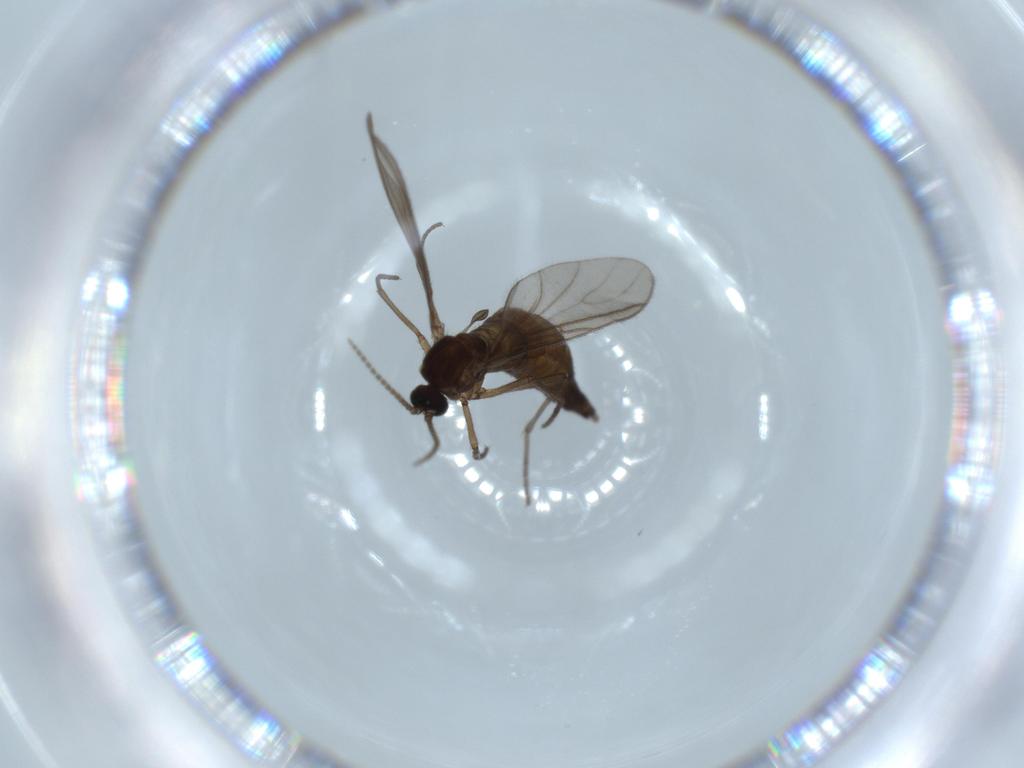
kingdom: Animalia
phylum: Arthropoda
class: Insecta
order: Diptera
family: Sciaridae
